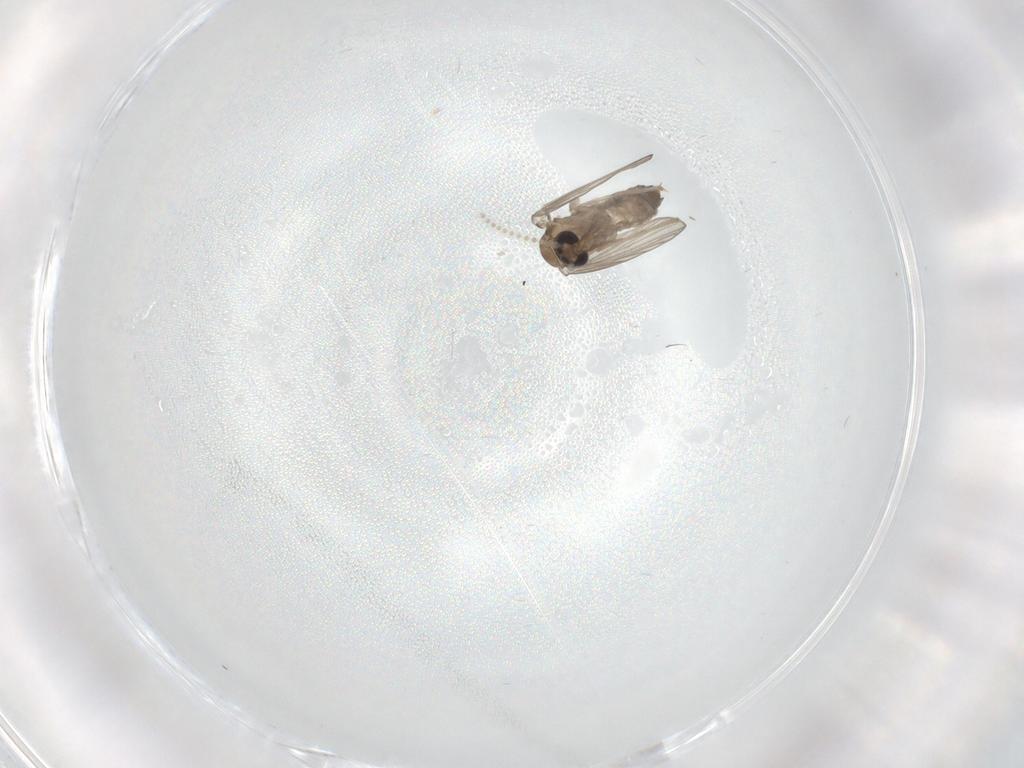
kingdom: Animalia
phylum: Arthropoda
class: Insecta
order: Diptera
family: Psychodidae
